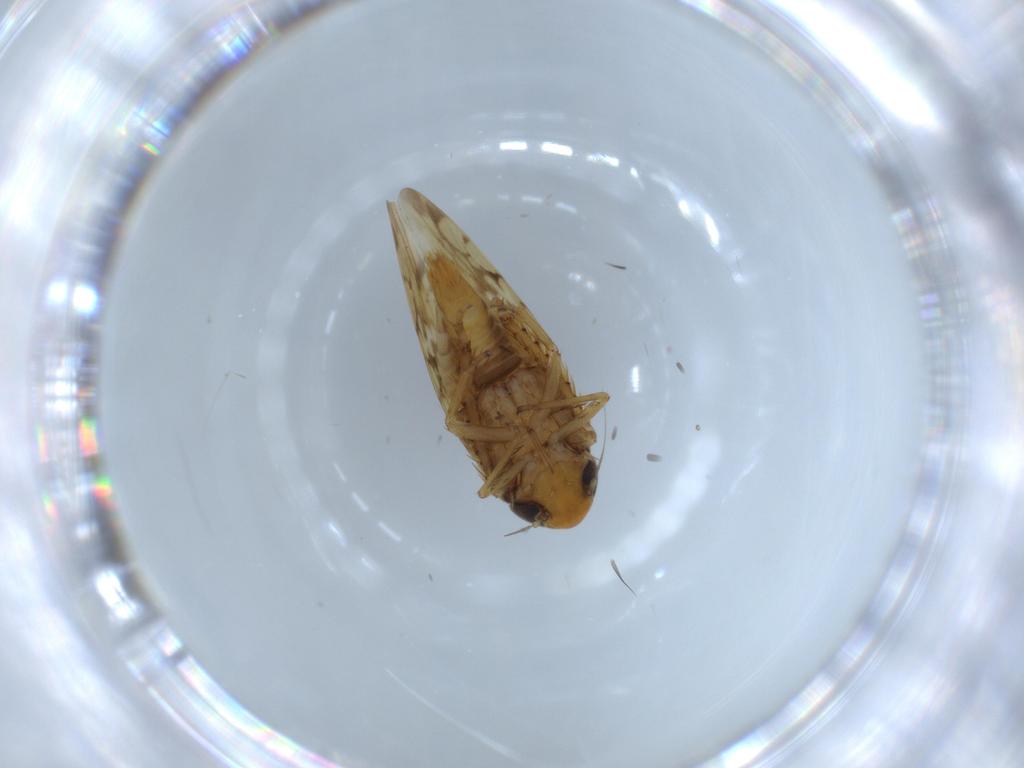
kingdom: Animalia
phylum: Arthropoda
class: Insecta
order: Hemiptera
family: Cicadellidae
